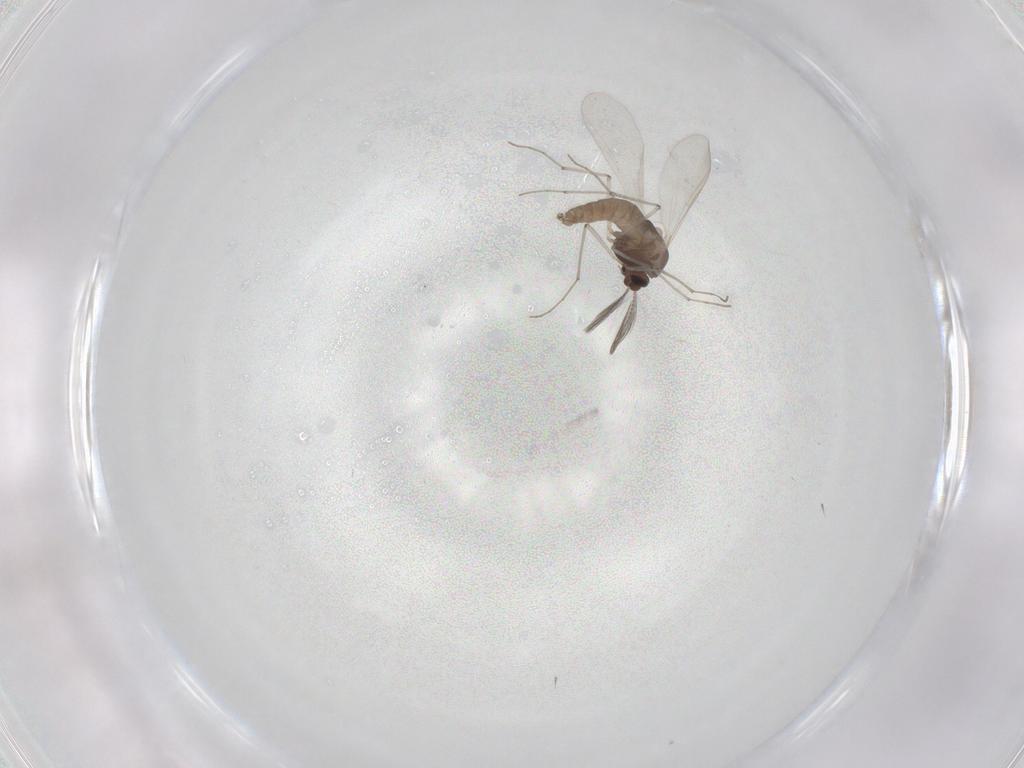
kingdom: Animalia
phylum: Arthropoda
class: Insecta
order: Diptera
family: Chironomidae
